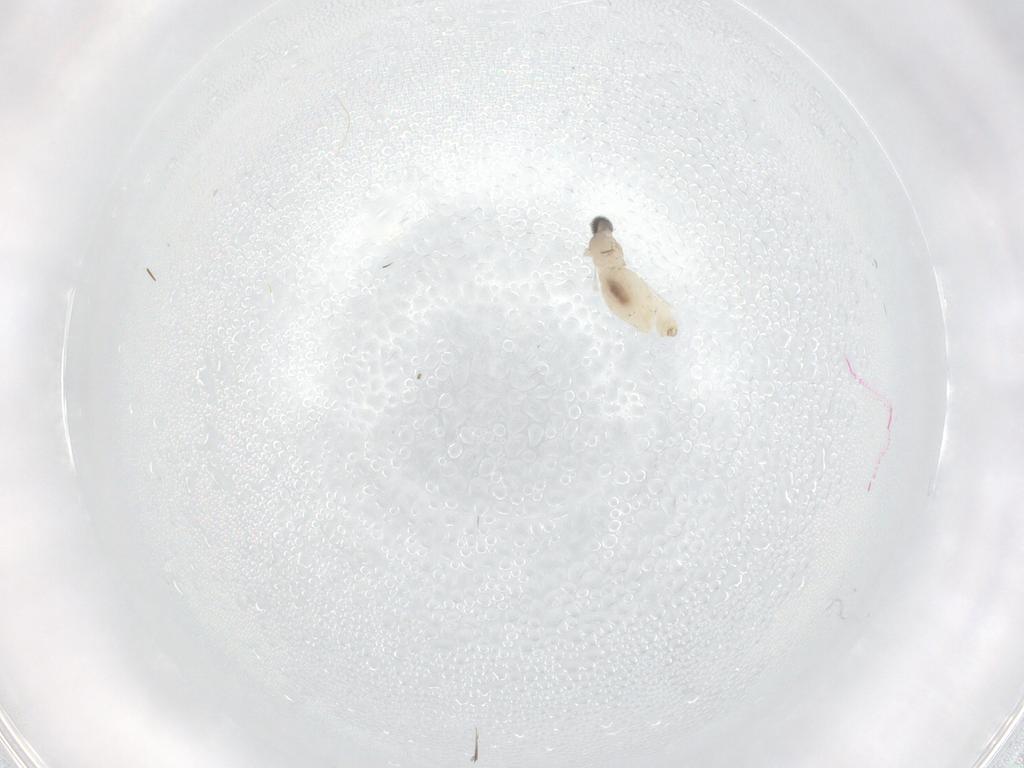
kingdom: Animalia
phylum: Arthropoda
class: Insecta
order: Diptera
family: Cecidomyiidae
